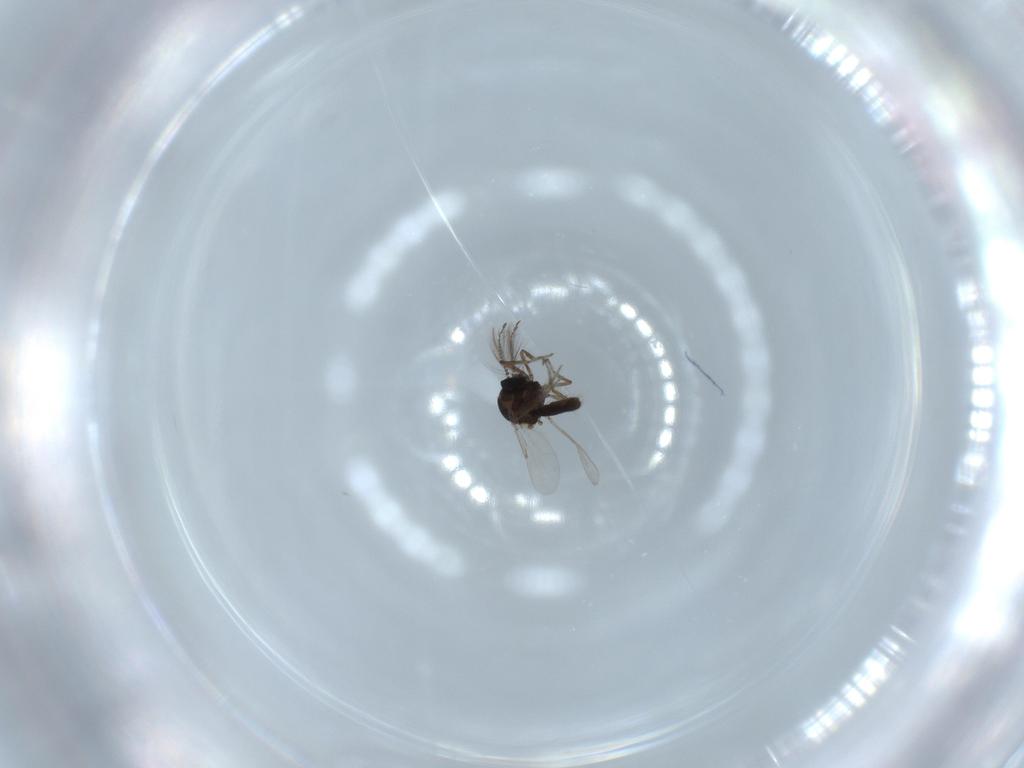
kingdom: Animalia
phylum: Arthropoda
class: Insecta
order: Diptera
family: Ceratopogonidae
